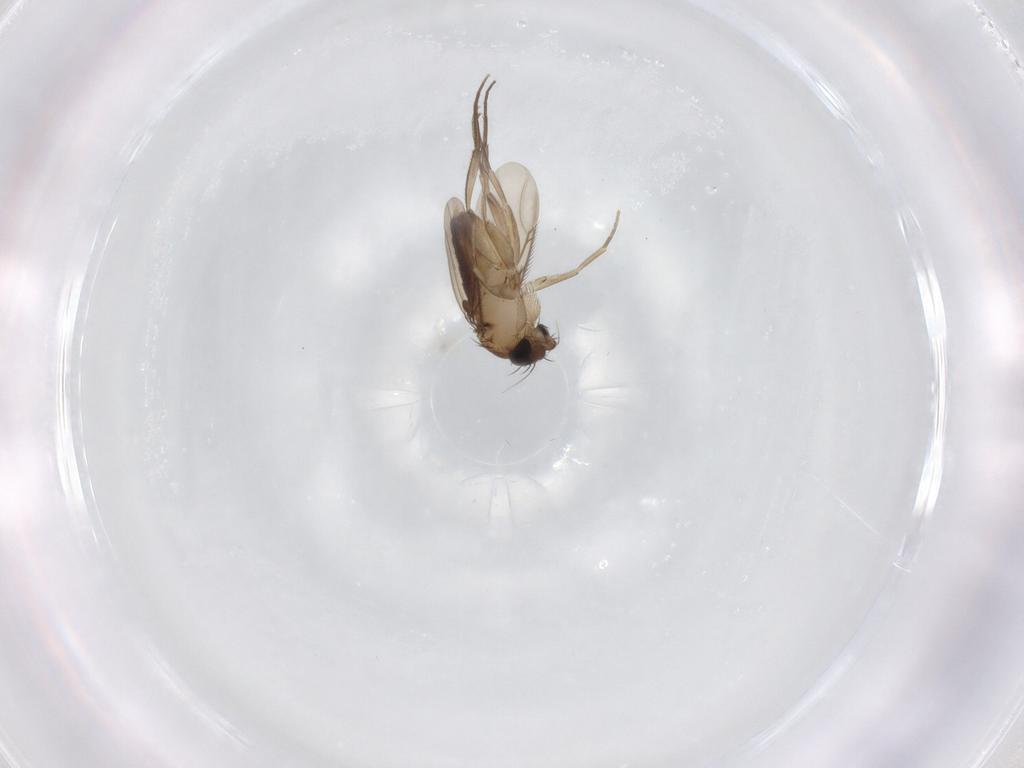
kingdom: Animalia
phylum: Arthropoda
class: Insecta
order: Diptera
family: Phoridae
